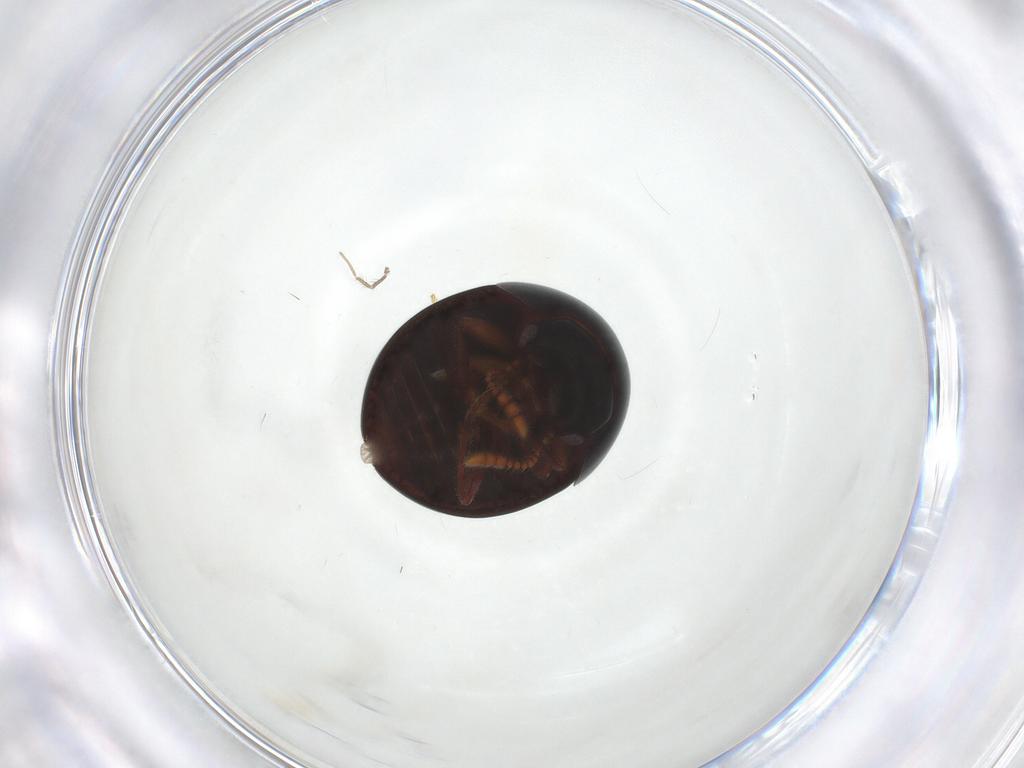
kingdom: Animalia
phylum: Arthropoda
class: Insecta
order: Coleoptera
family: Leiodidae
